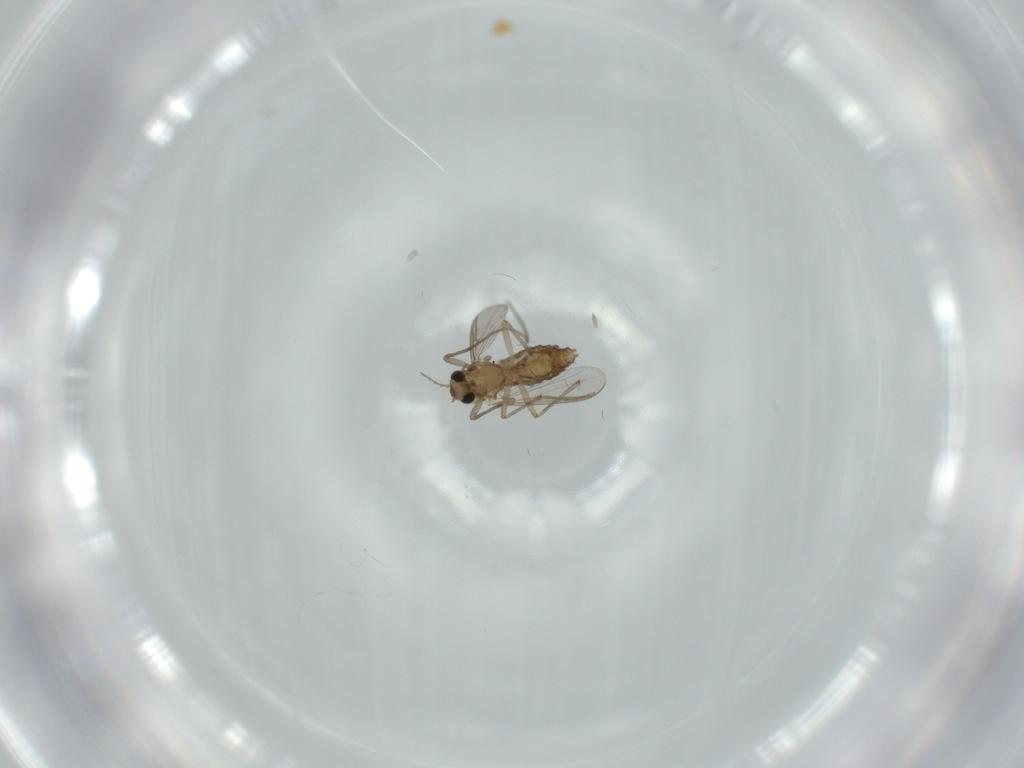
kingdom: Animalia
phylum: Arthropoda
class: Insecta
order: Diptera
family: Chironomidae
